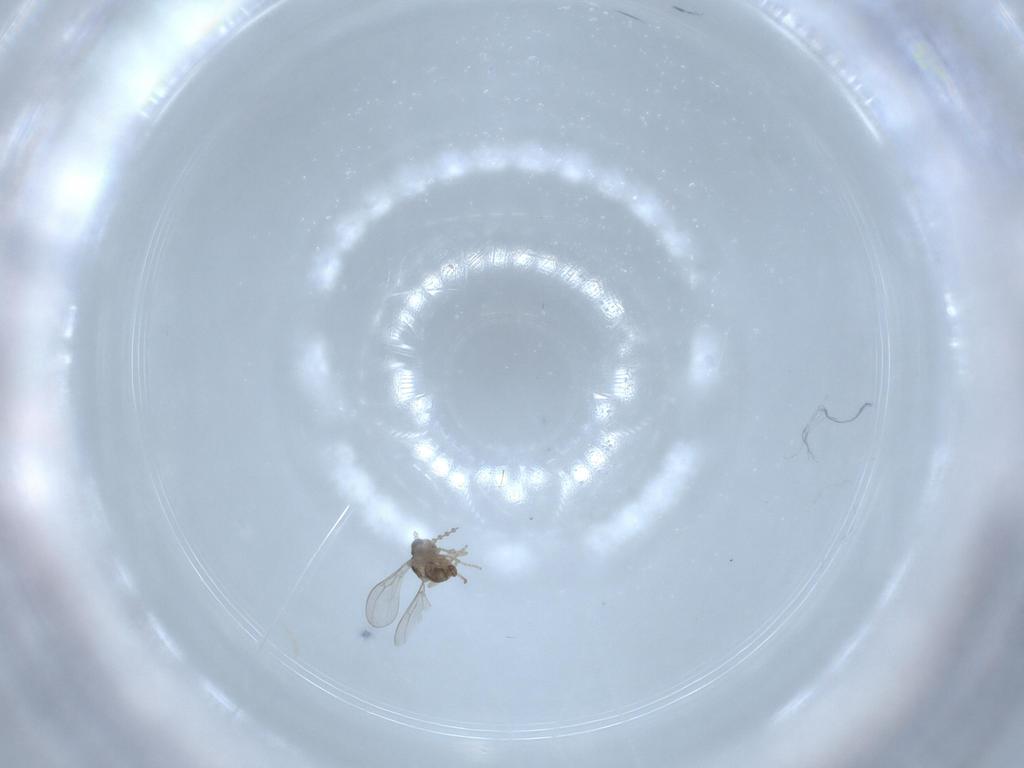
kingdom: Animalia
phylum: Arthropoda
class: Insecta
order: Diptera
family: Cecidomyiidae
